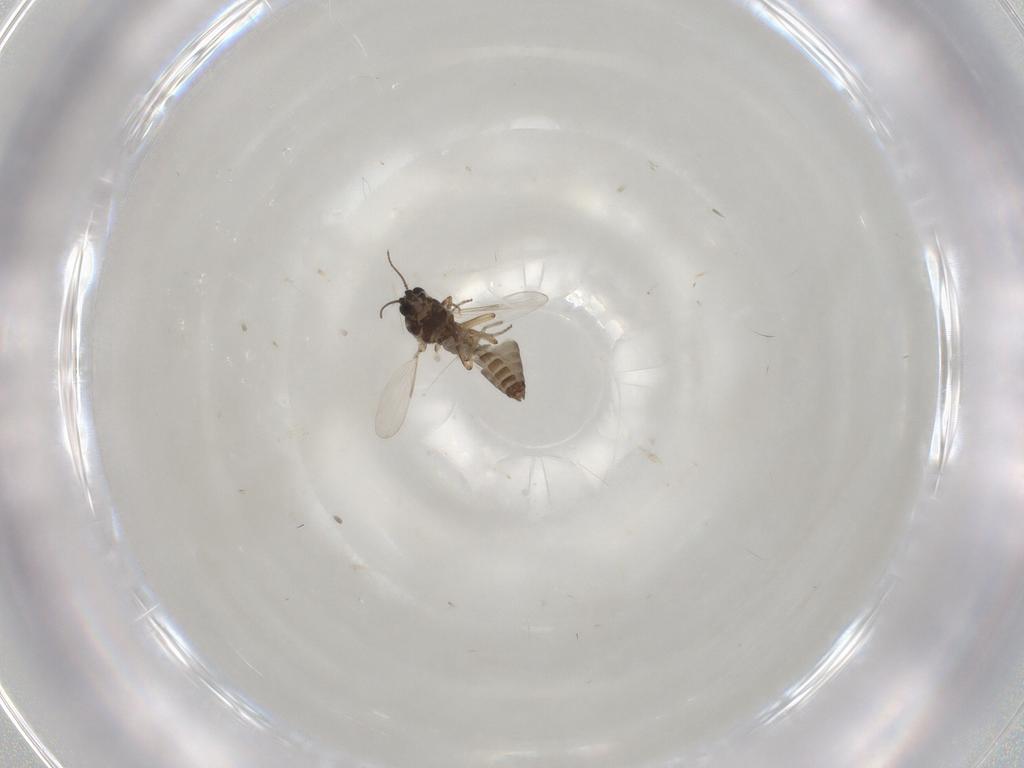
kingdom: Animalia
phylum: Arthropoda
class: Insecta
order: Diptera
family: Ceratopogonidae
